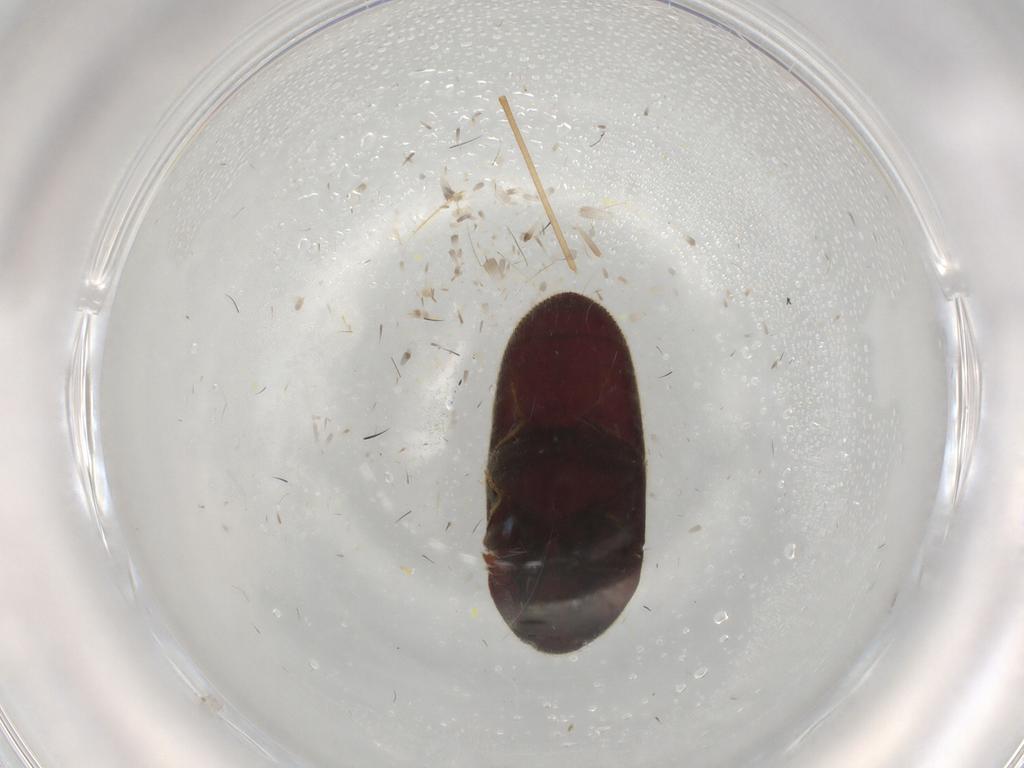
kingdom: Animalia
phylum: Arthropoda
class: Insecta
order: Coleoptera
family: Throscidae
